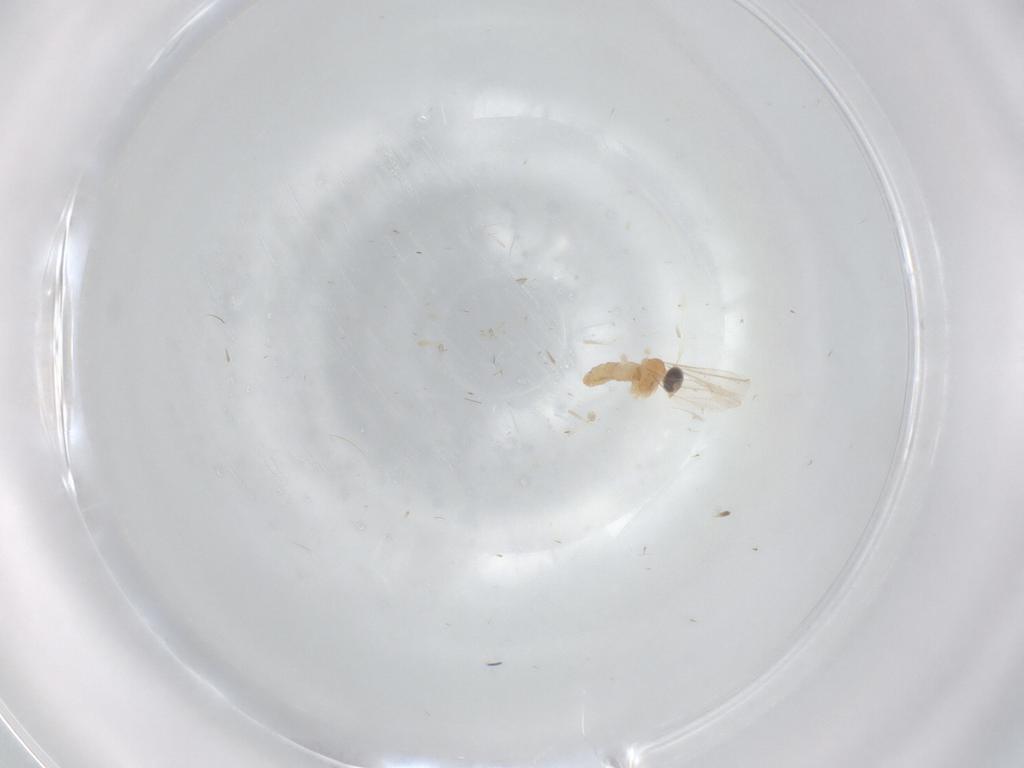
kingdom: Animalia
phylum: Arthropoda
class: Insecta
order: Diptera
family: Cecidomyiidae
